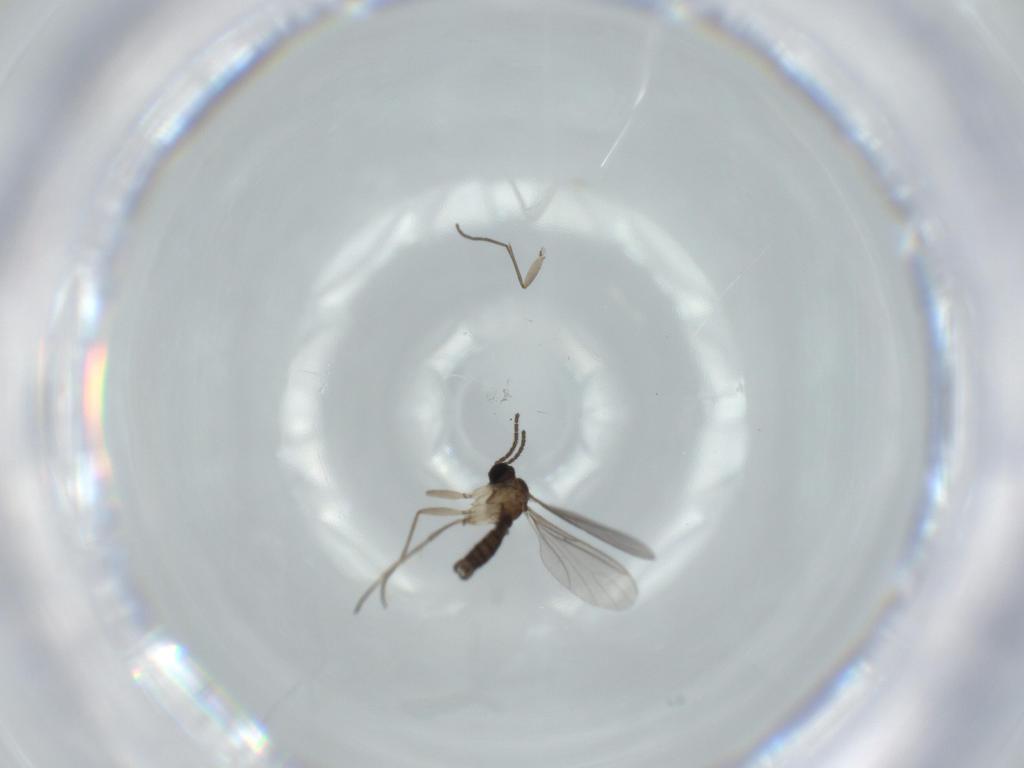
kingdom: Animalia
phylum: Arthropoda
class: Insecta
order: Diptera
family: Sciaridae
